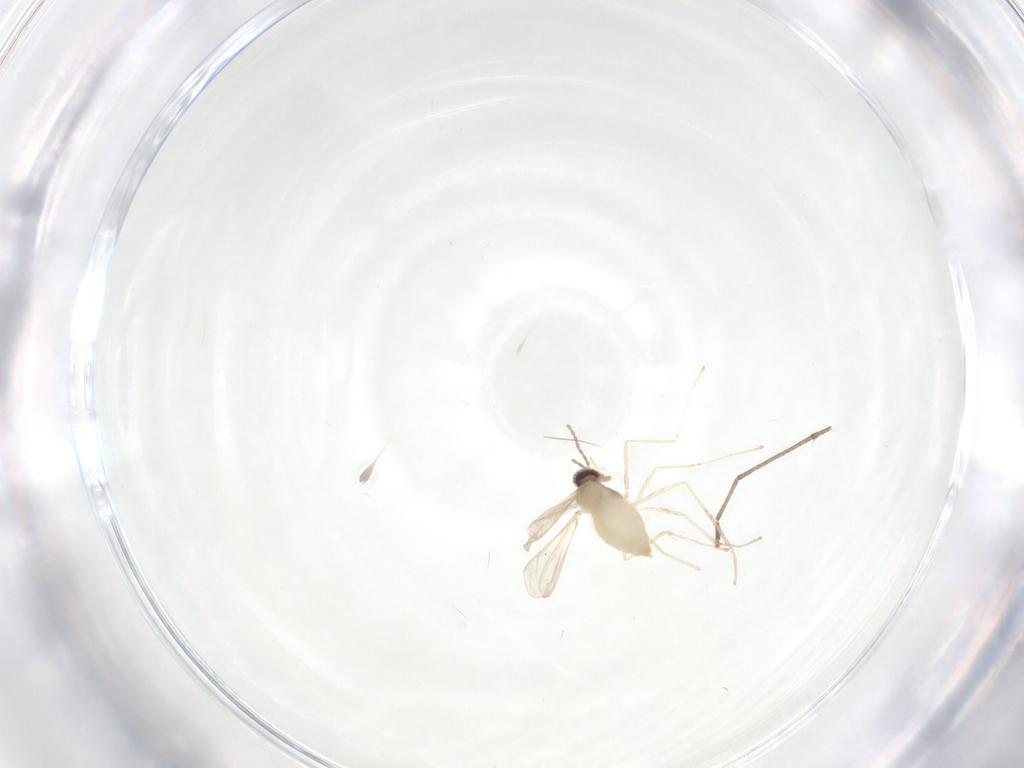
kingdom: Animalia
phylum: Arthropoda
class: Insecta
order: Diptera
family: Cecidomyiidae
